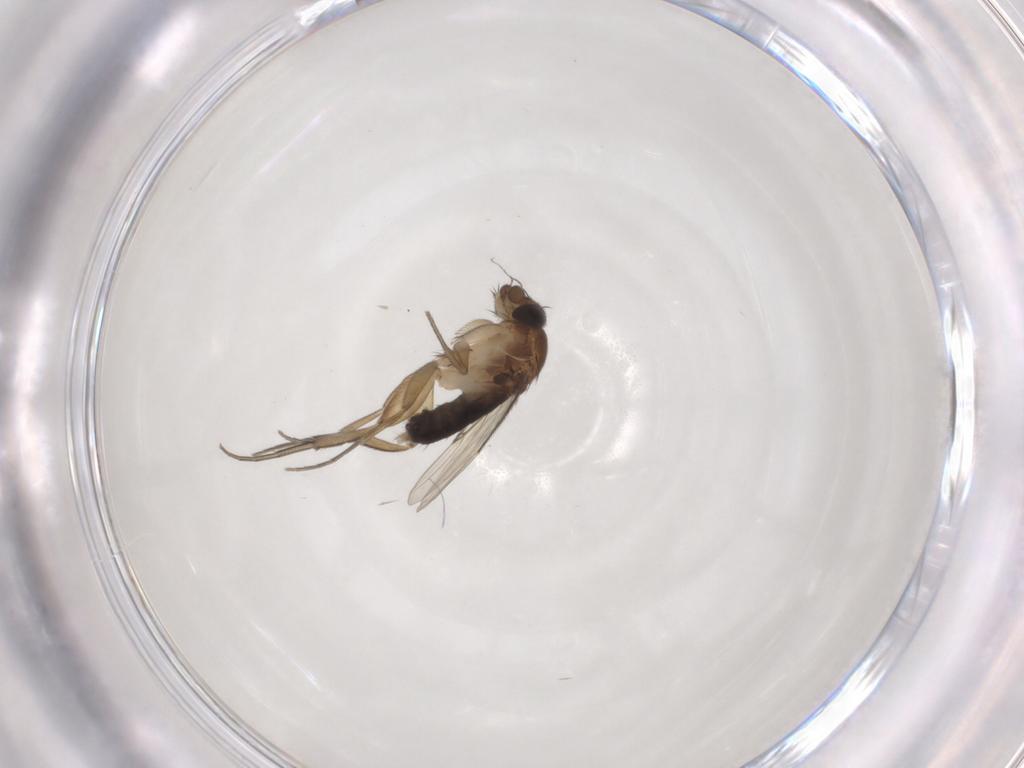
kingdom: Animalia
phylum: Arthropoda
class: Insecta
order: Diptera
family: Phoridae
